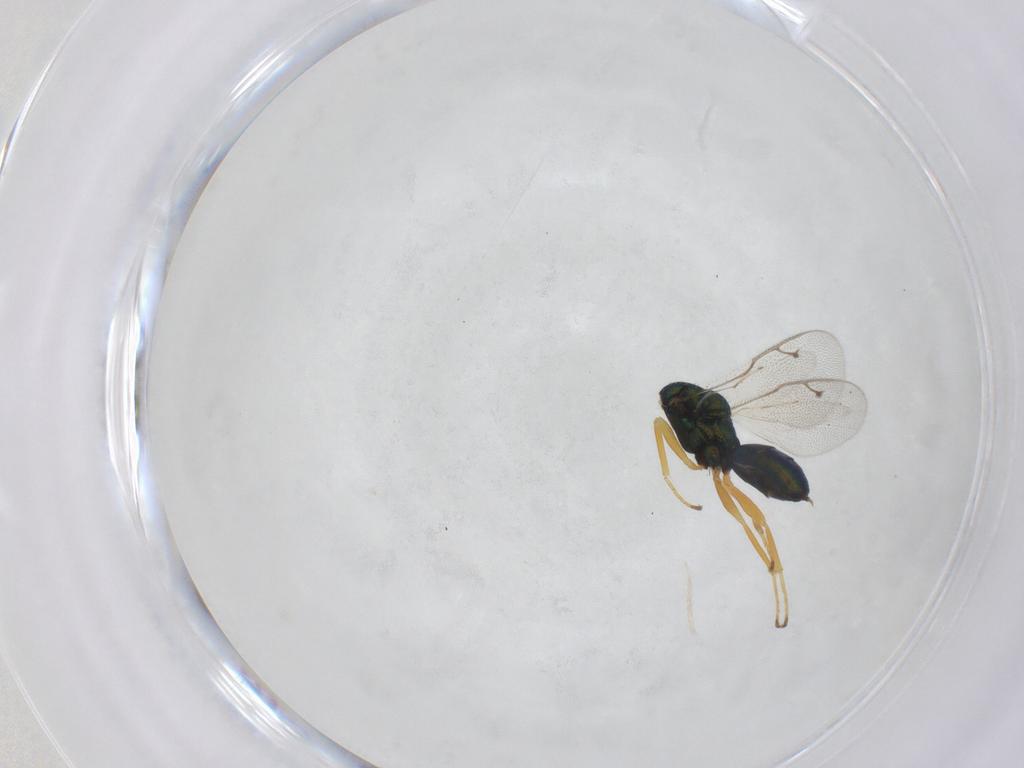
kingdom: Animalia
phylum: Arthropoda
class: Insecta
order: Hymenoptera
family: Pteromalidae
